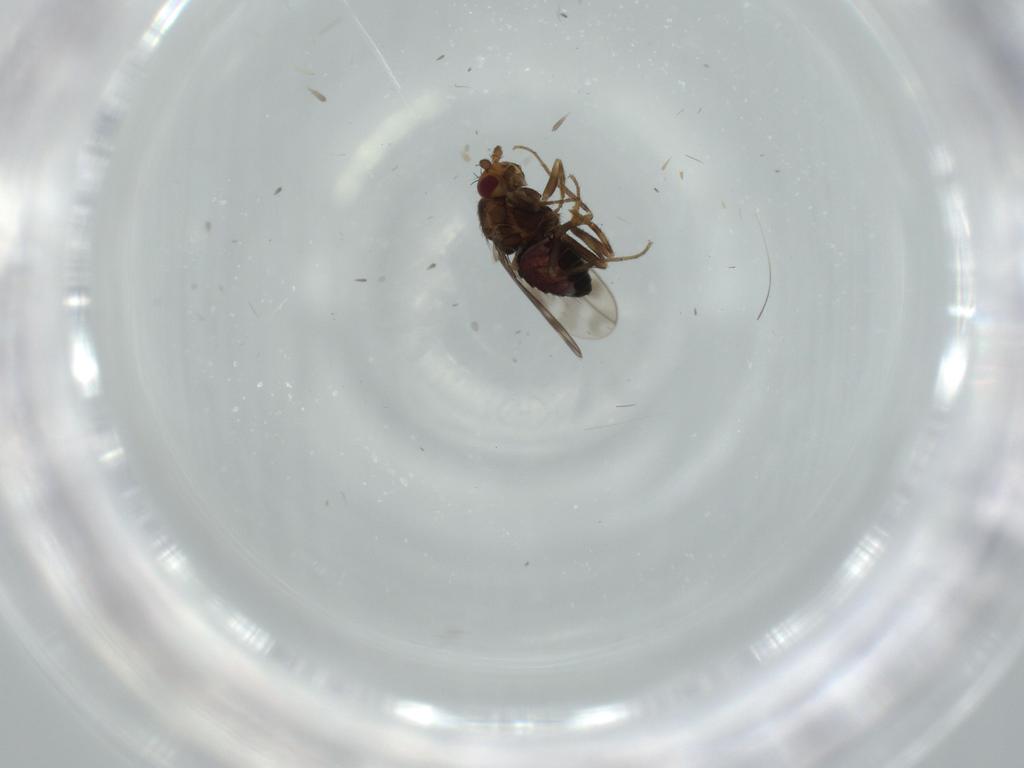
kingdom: Animalia
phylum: Arthropoda
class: Insecta
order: Diptera
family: Sphaeroceridae
